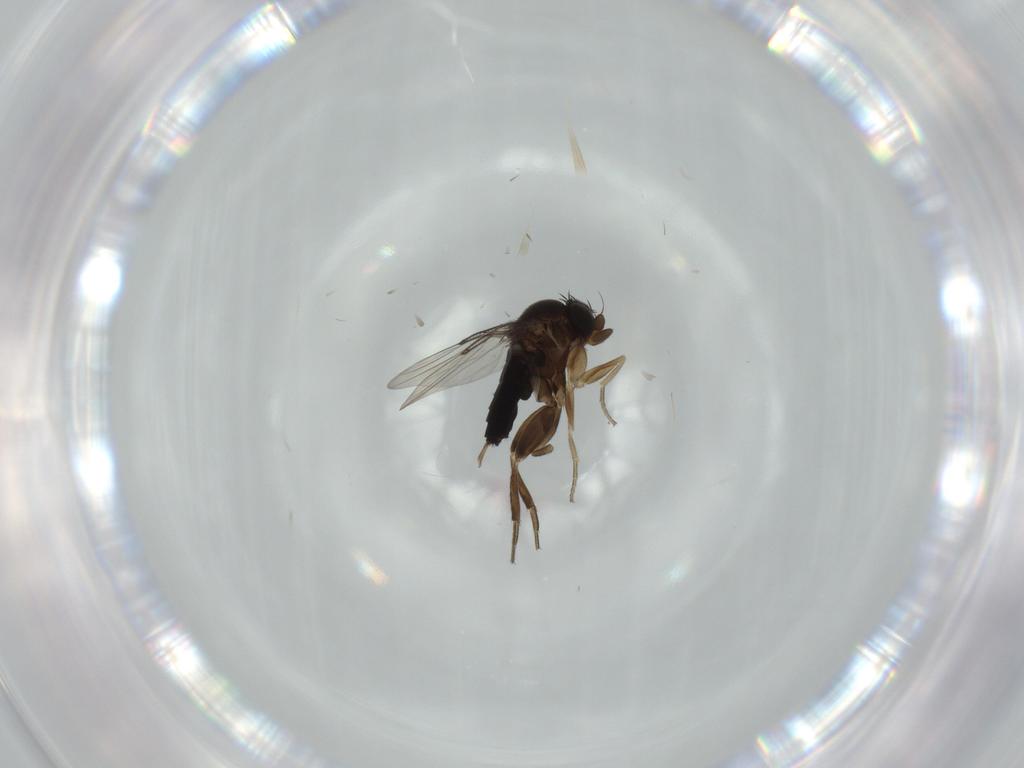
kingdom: Animalia
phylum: Arthropoda
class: Insecta
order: Diptera
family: Phoridae
